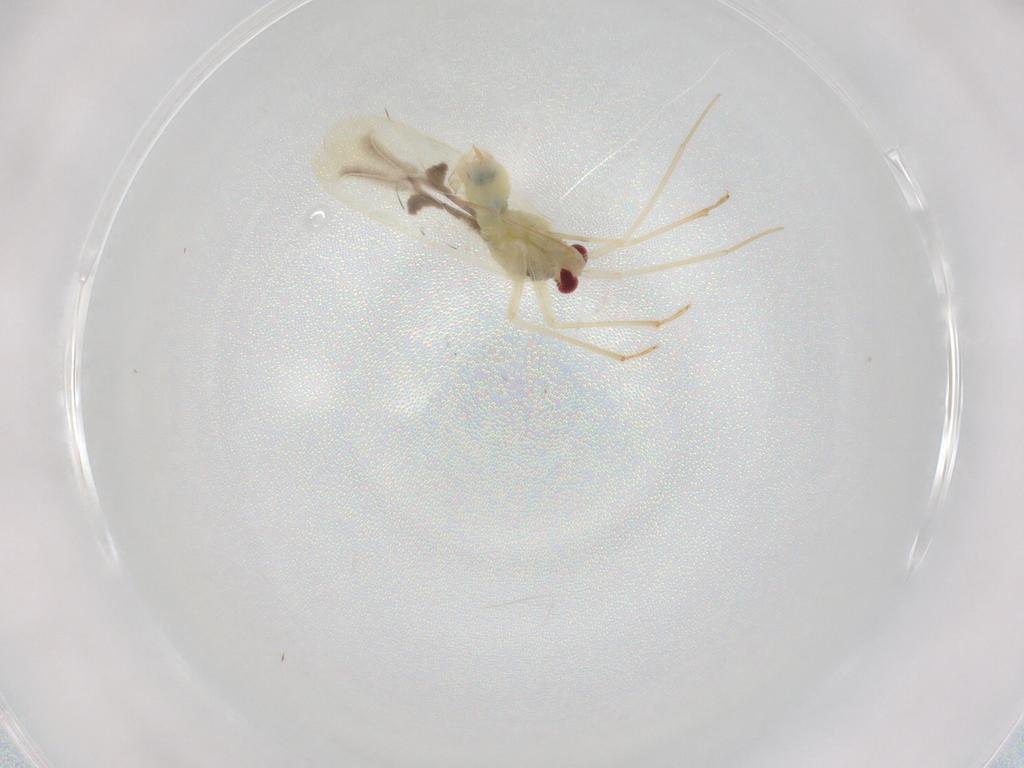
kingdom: Animalia
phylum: Arthropoda
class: Insecta
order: Hemiptera
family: Miridae
